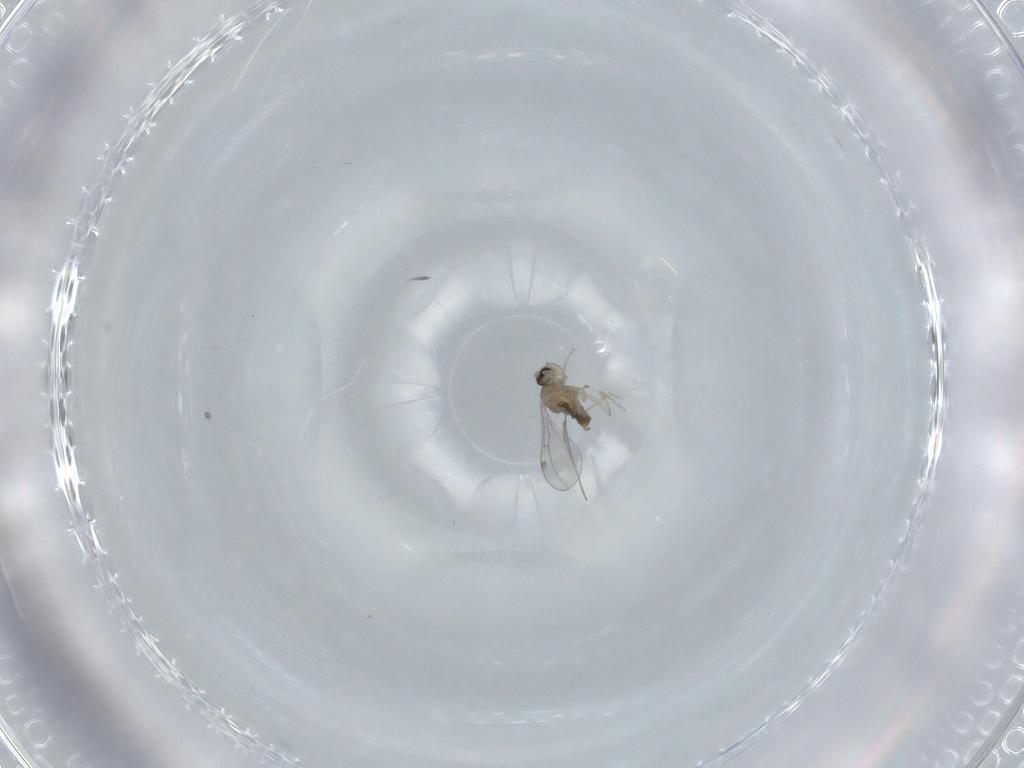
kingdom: Animalia
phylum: Arthropoda
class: Insecta
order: Diptera
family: Cecidomyiidae
